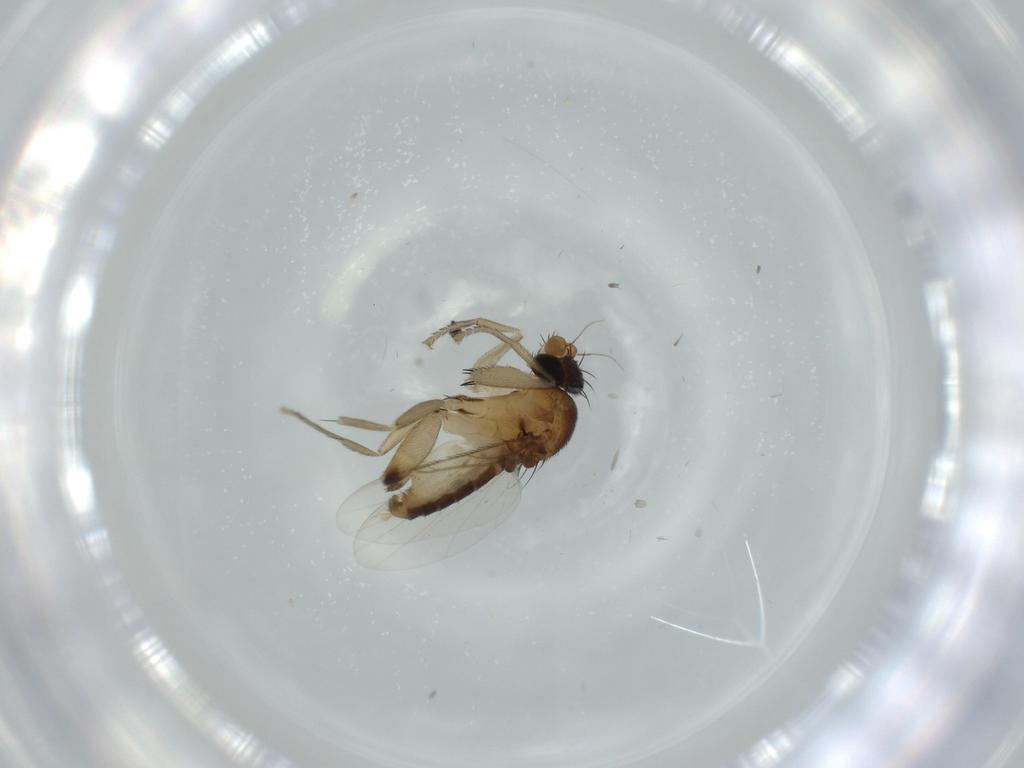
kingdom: Animalia
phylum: Arthropoda
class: Insecta
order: Diptera
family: Phoridae
